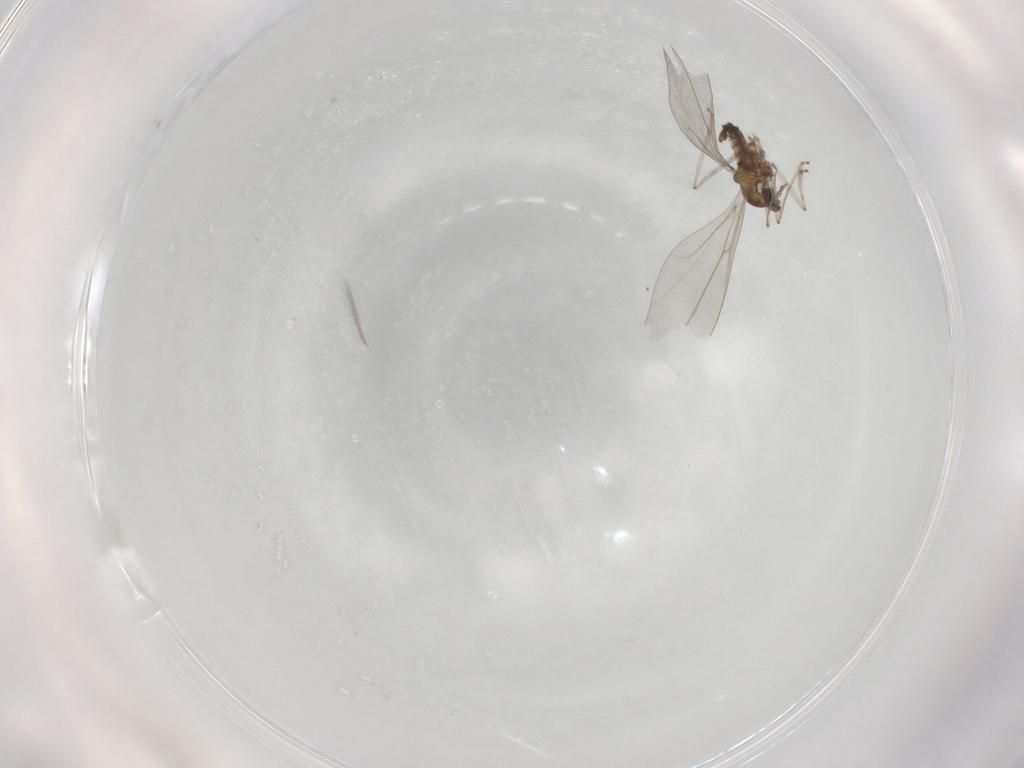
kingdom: Animalia
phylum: Arthropoda
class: Insecta
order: Diptera
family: Cecidomyiidae
